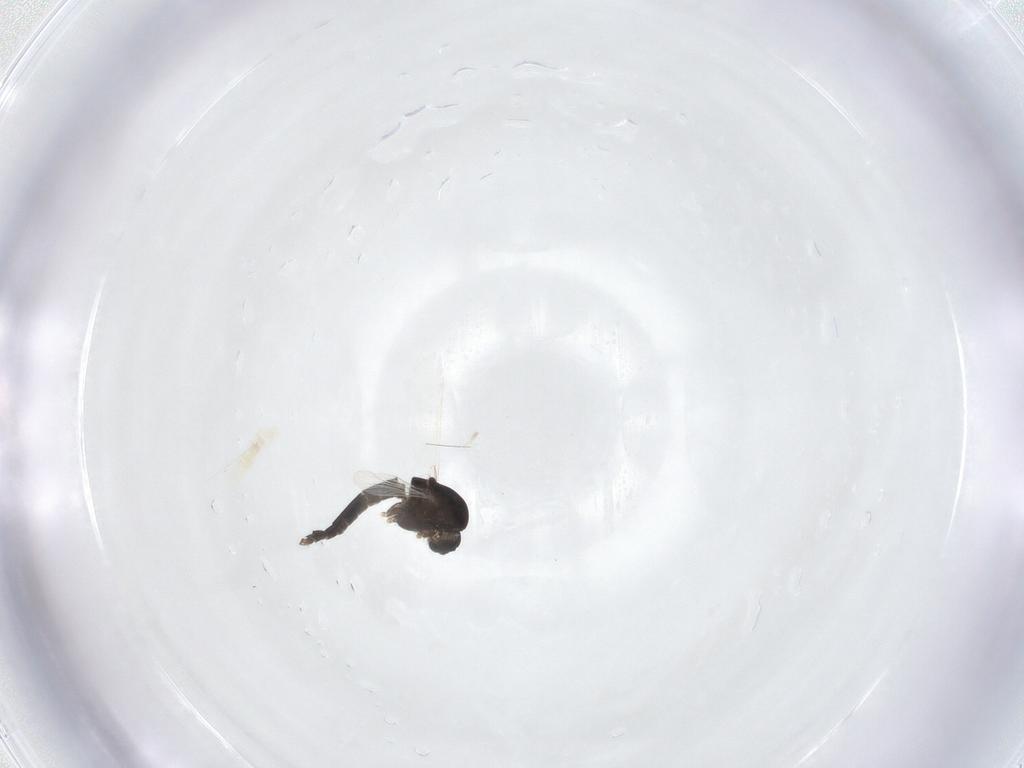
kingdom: Animalia
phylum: Arthropoda
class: Insecta
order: Diptera
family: Chironomidae
